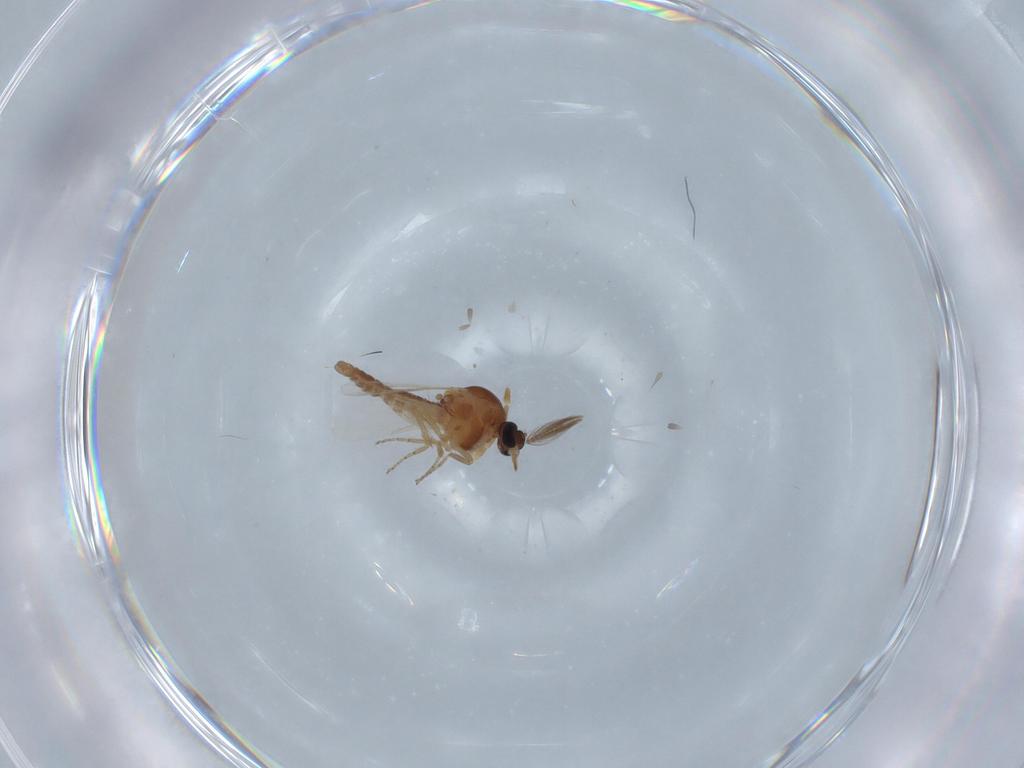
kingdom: Animalia
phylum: Arthropoda
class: Insecta
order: Diptera
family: Ceratopogonidae
